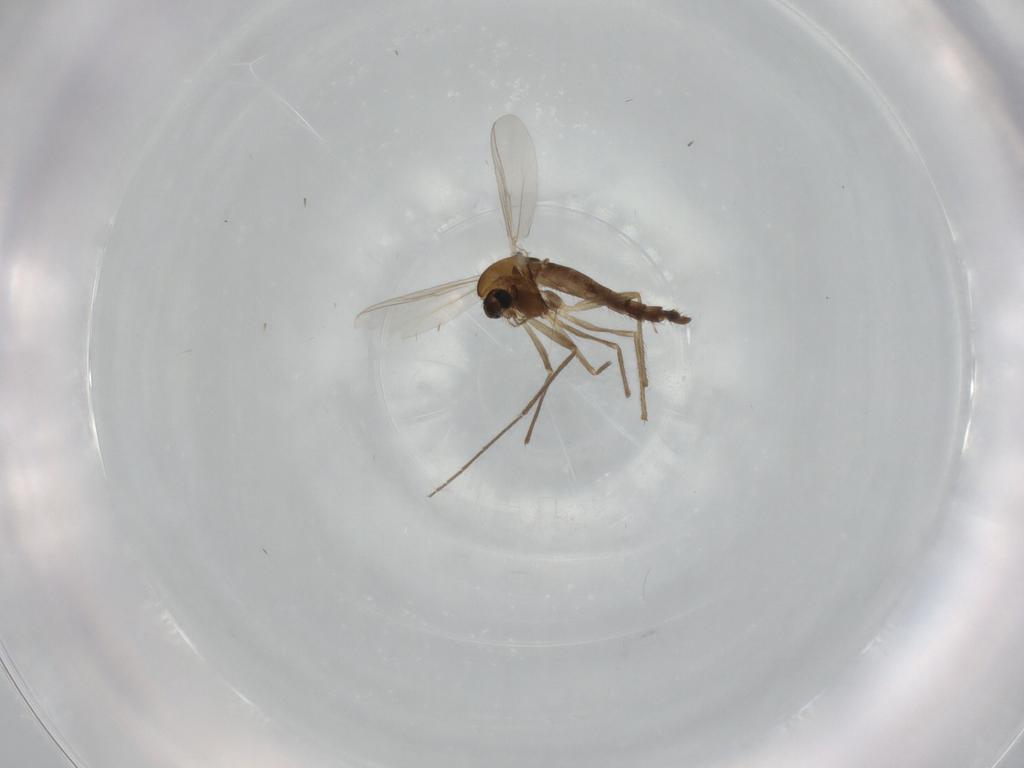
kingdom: Animalia
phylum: Arthropoda
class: Insecta
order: Diptera
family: Chironomidae
